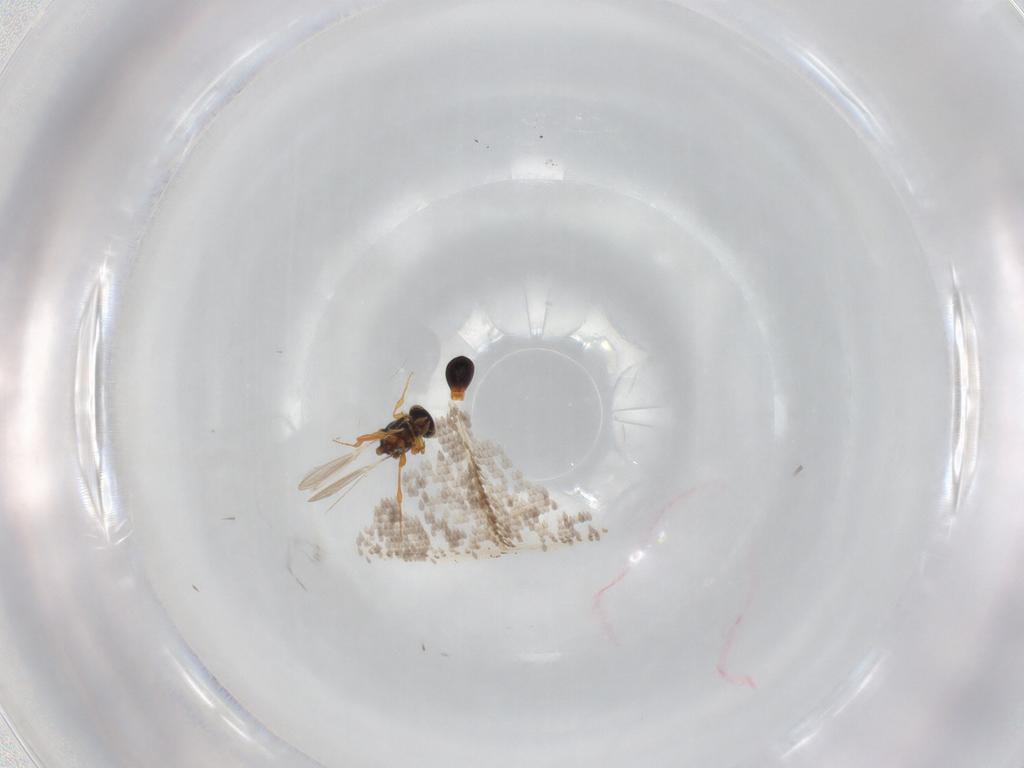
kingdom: Animalia
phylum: Arthropoda
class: Insecta
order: Hymenoptera
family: Platygastridae
